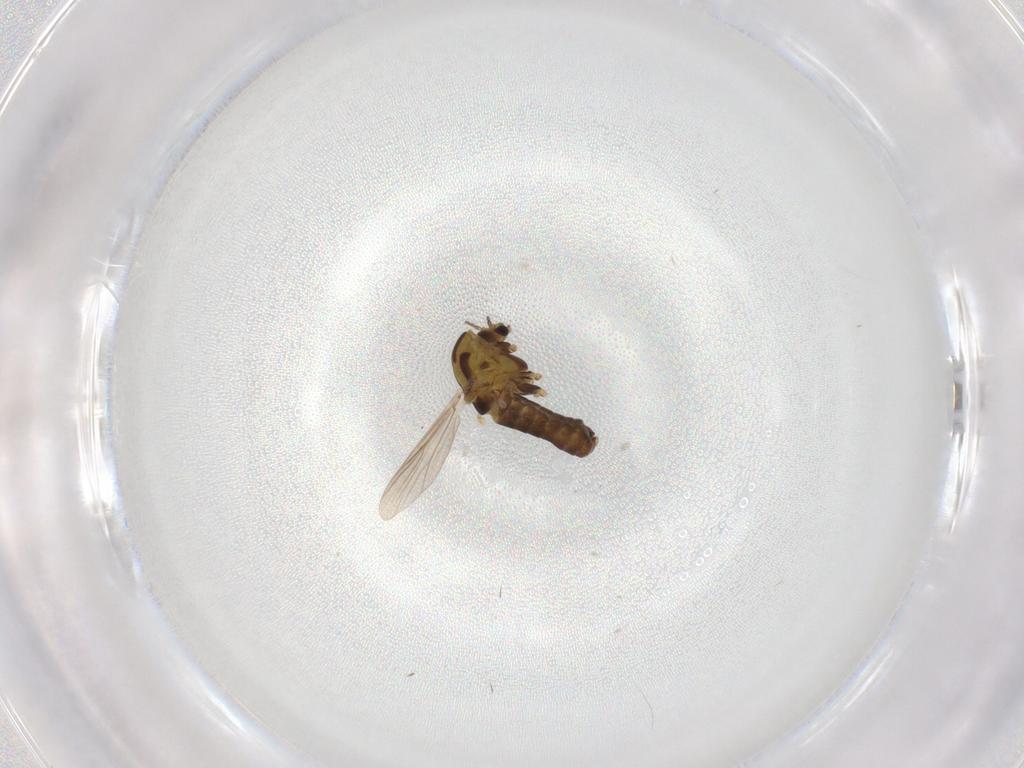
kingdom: Animalia
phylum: Arthropoda
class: Insecta
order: Diptera
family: Chironomidae
